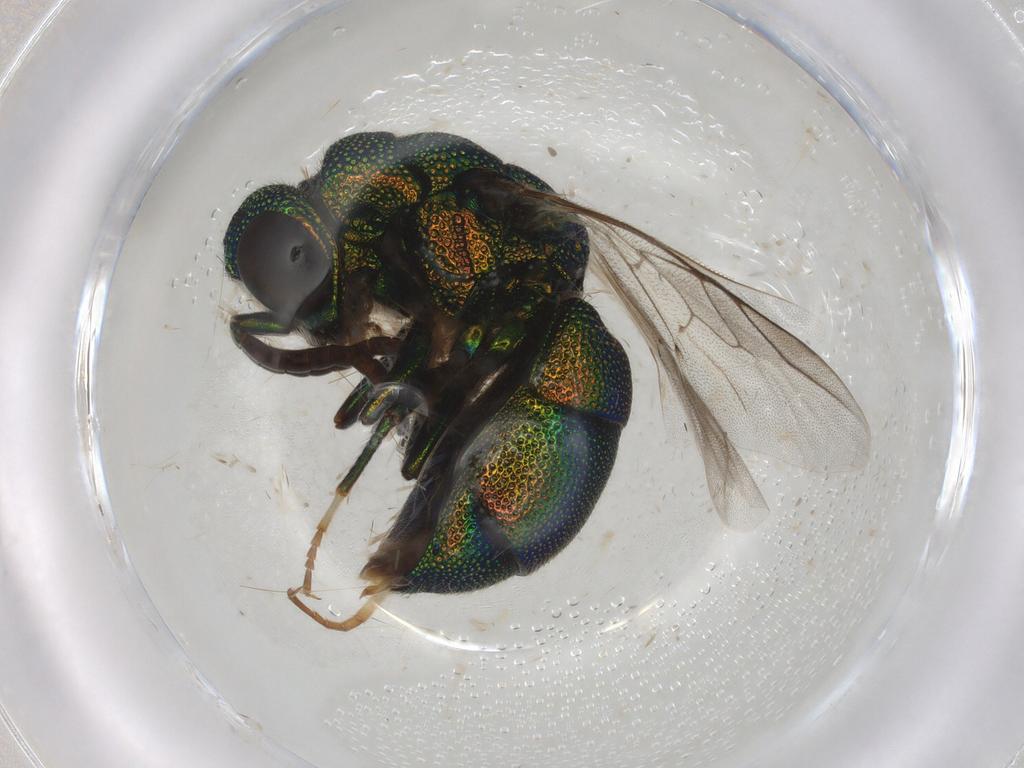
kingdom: Animalia
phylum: Arthropoda
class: Insecta
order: Hymenoptera
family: Chrysididae
